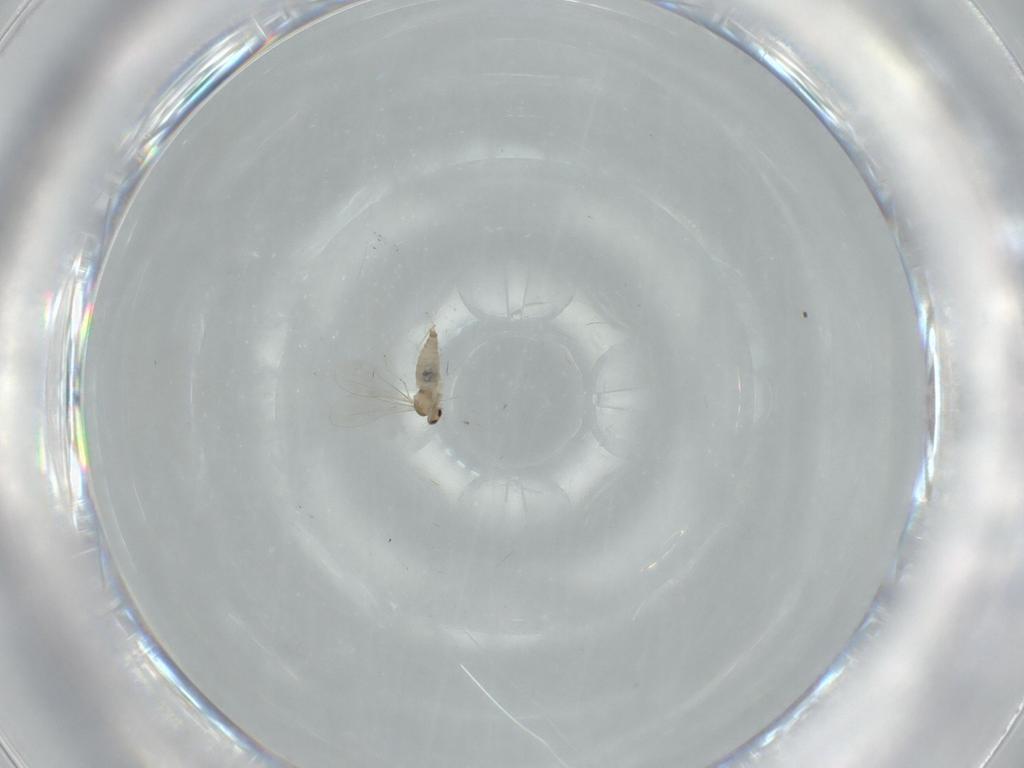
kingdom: Animalia
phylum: Arthropoda
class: Insecta
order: Diptera
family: Cecidomyiidae
